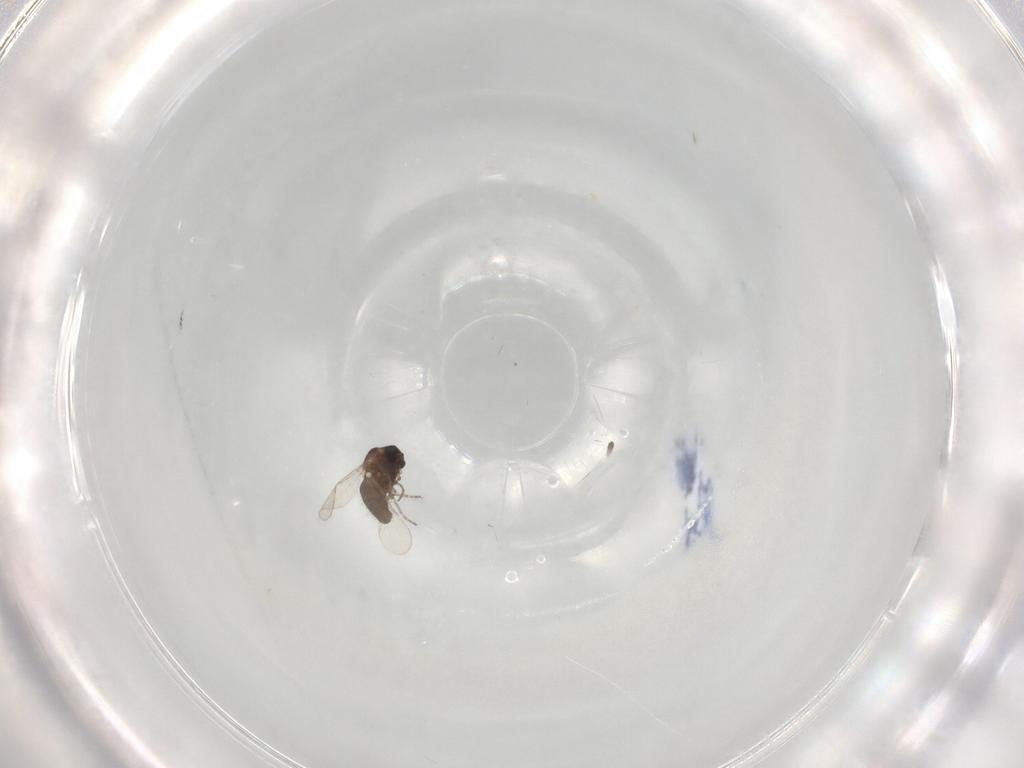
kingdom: Animalia
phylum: Arthropoda
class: Insecta
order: Diptera
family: Ceratopogonidae
